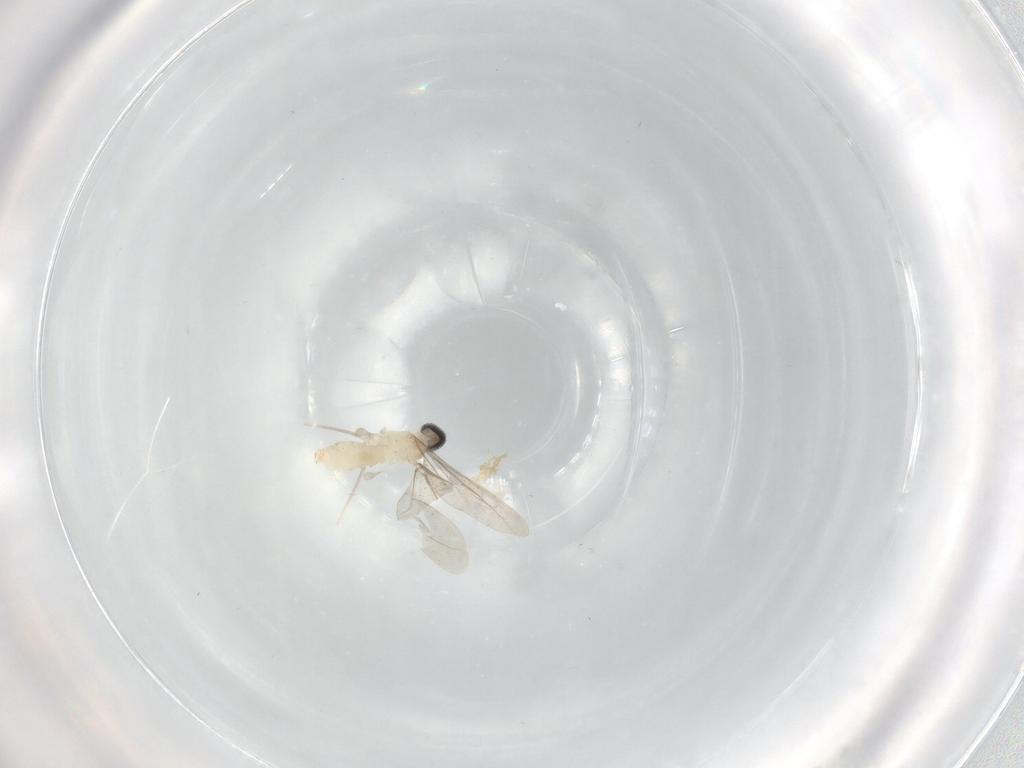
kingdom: Animalia
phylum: Arthropoda
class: Insecta
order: Diptera
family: Cecidomyiidae
